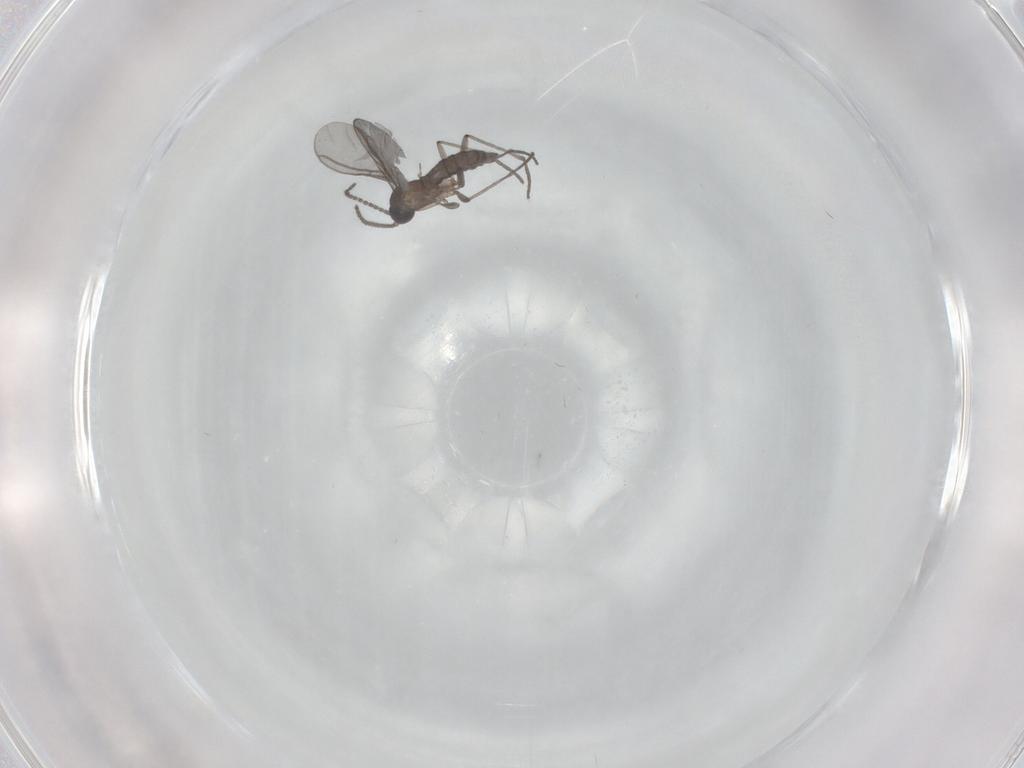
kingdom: Animalia
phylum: Arthropoda
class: Insecta
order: Diptera
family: Sciaridae
